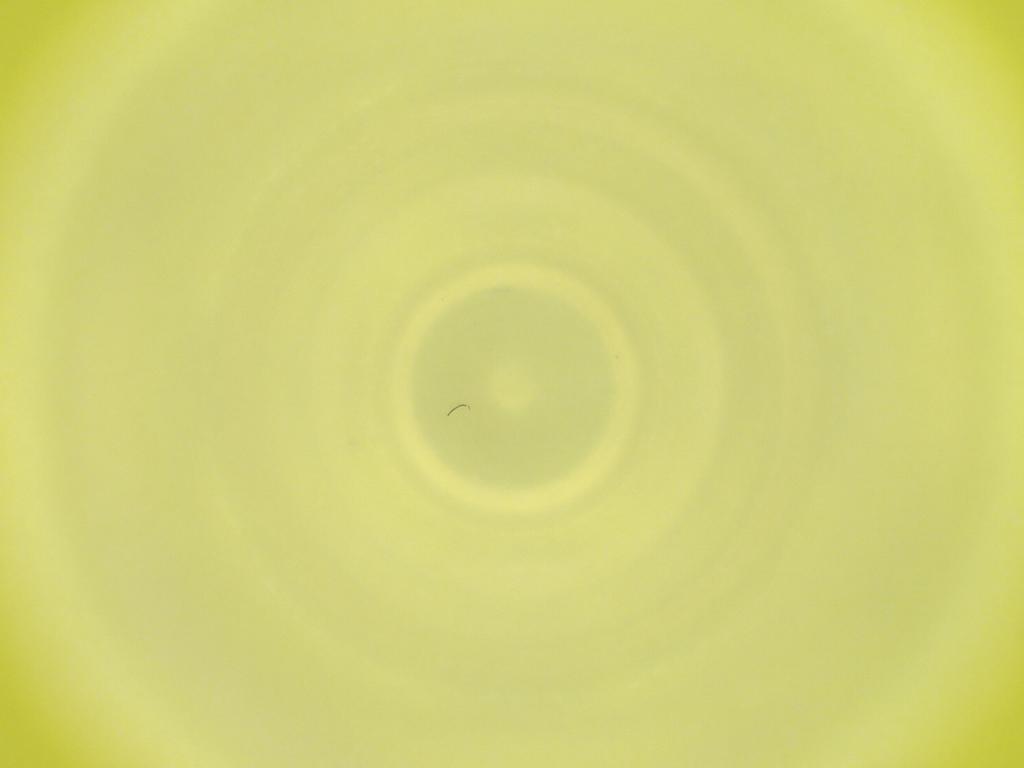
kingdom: Animalia
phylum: Arthropoda
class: Insecta
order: Diptera
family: Cecidomyiidae
